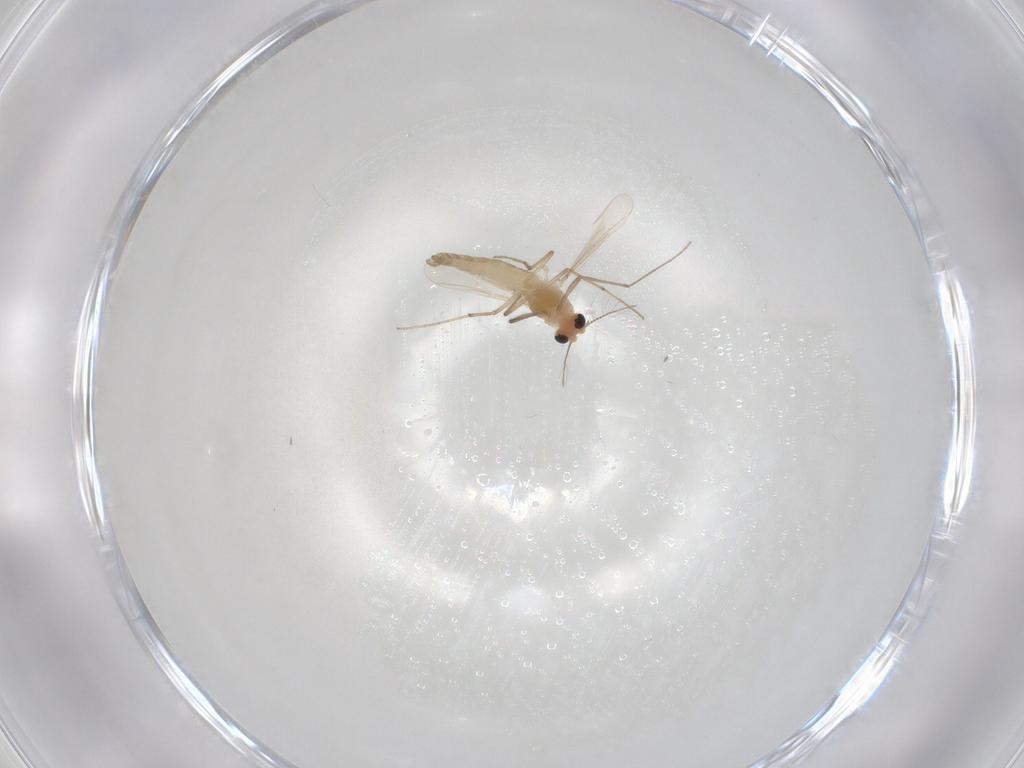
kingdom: Animalia
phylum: Arthropoda
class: Insecta
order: Diptera
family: Chironomidae
